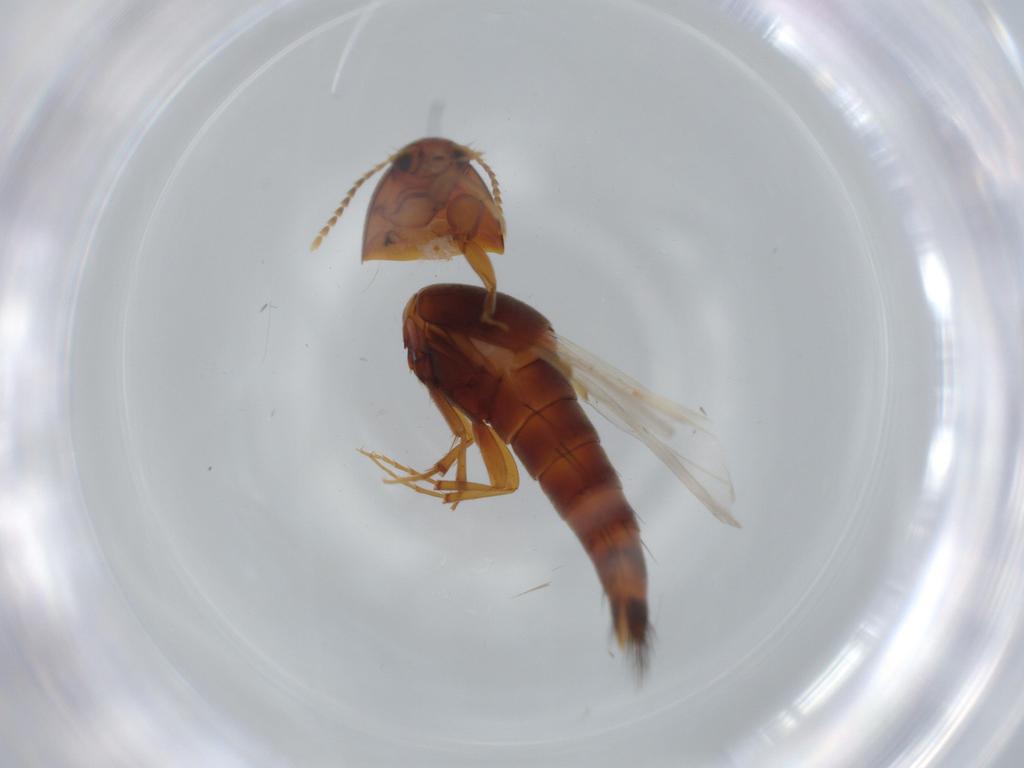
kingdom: Animalia
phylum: Arthropoda
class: Insecta
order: Coleoptera
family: Staphylinidae
